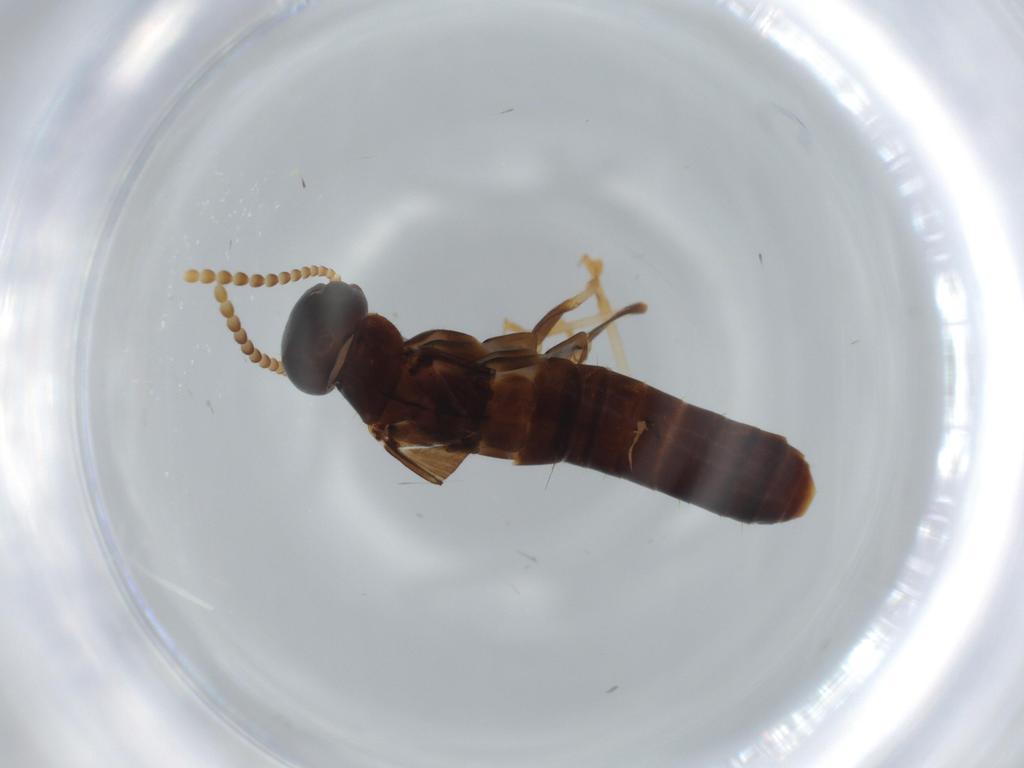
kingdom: Animalia
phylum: Arthropoda
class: Insecta
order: Blattodea
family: Kalotermitidae
